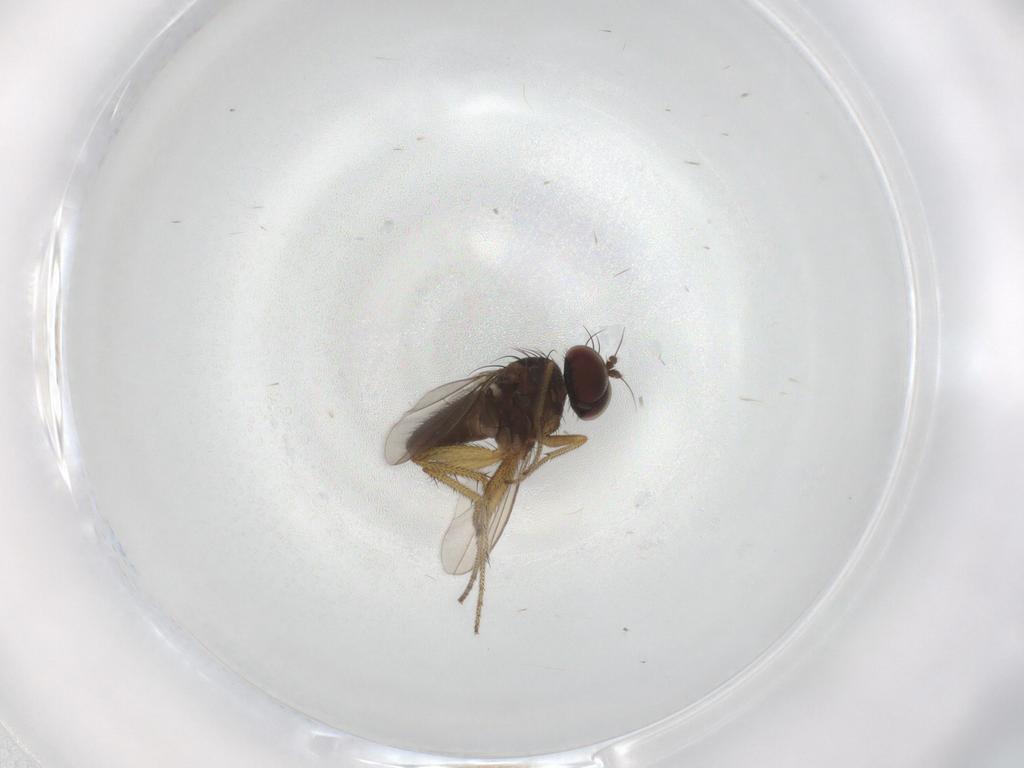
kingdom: Animalia
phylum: Arthropoda
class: Insecta
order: Diptera
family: Dolichopodidae
